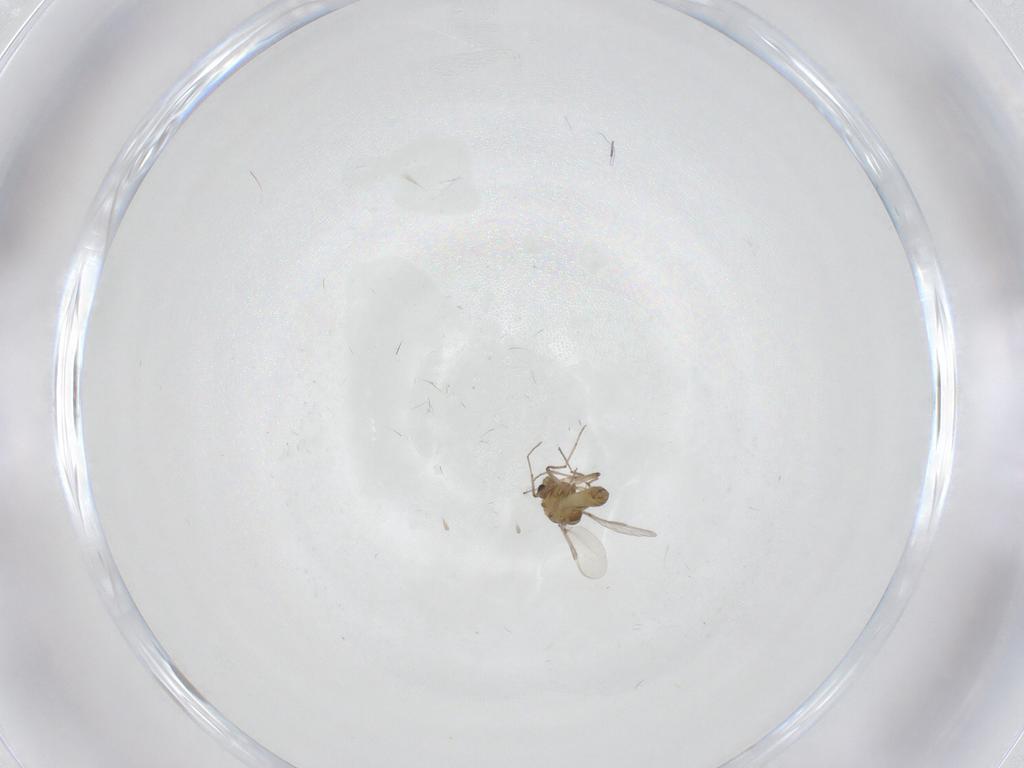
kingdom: Animalia
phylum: Arthropoda
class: Insecta
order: Diptera
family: Chironomidae
